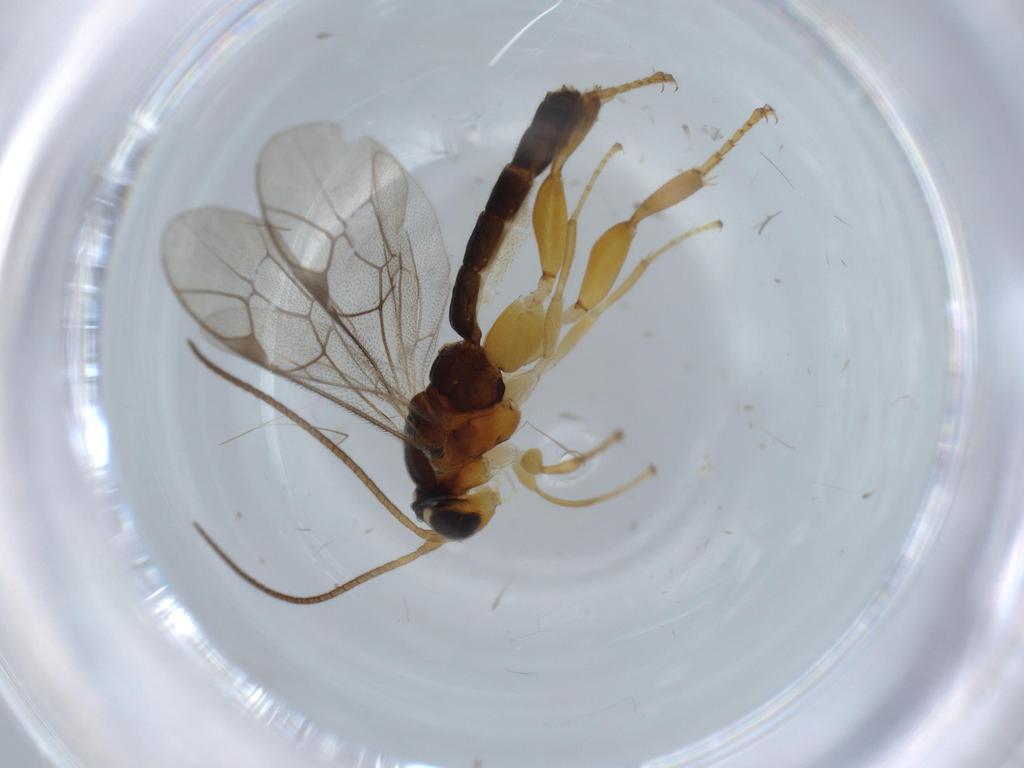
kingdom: Animalia
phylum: Arthropoda
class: Insecta
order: Hymenoptera
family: Ichneumonidae
